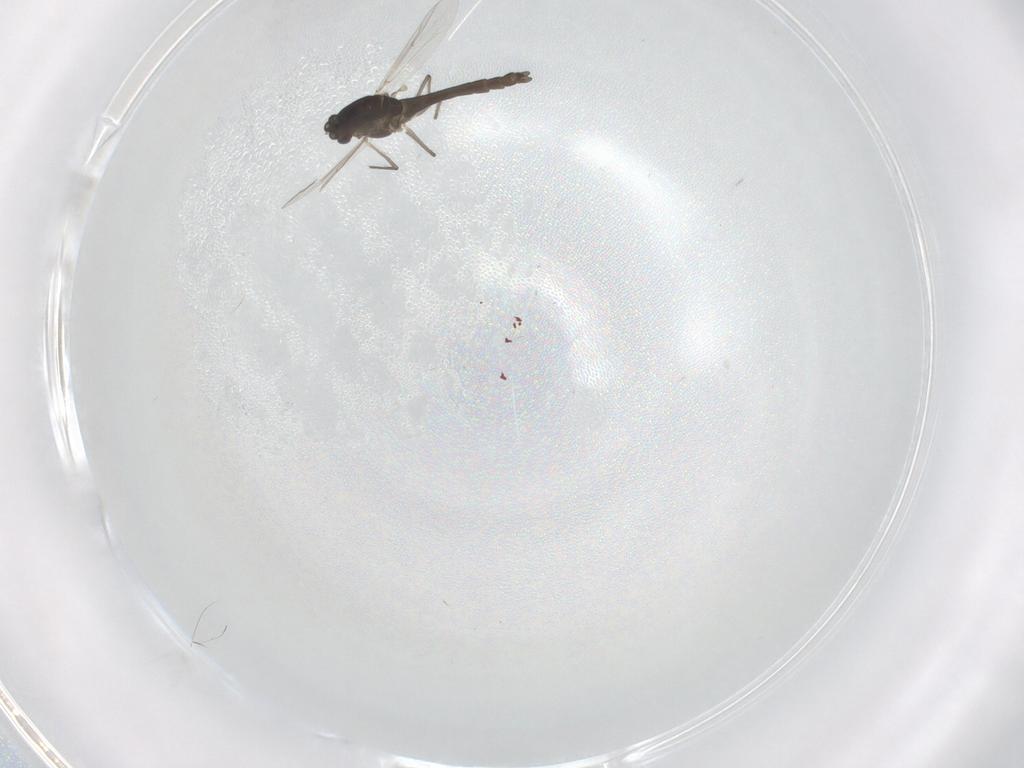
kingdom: Animalia
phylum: Arthropoda
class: Insecta
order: Diptera
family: Chironomidae
